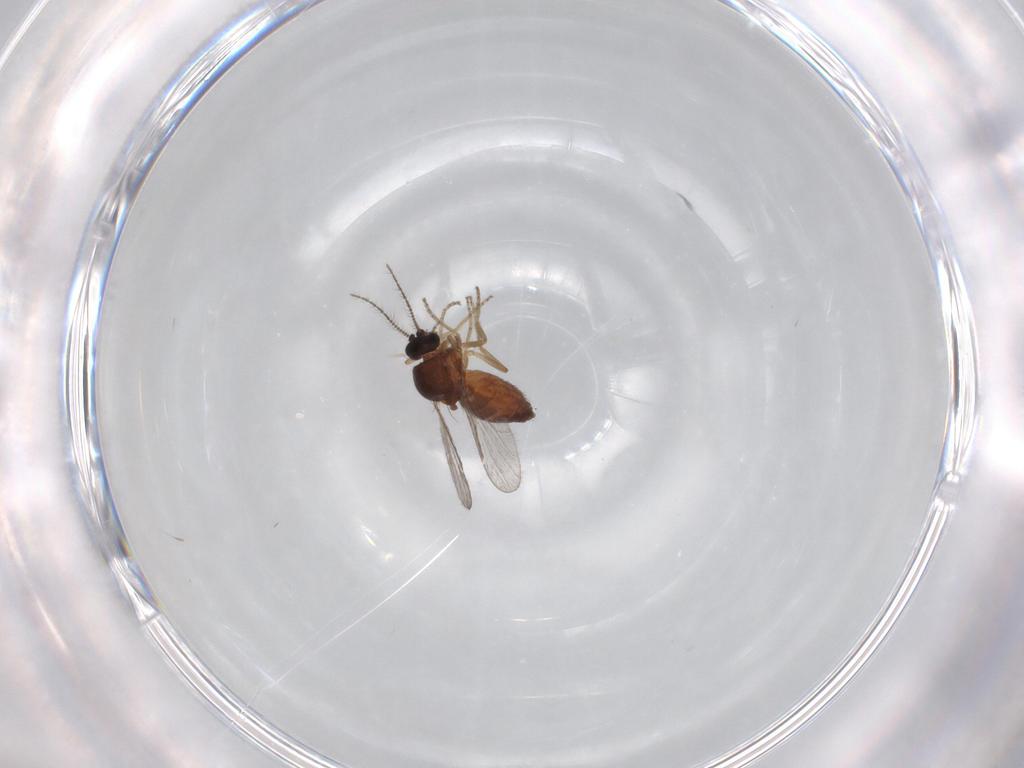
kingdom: Animalia
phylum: Arthropoda
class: Insecta
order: Diptera
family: Ceratopogonidae
